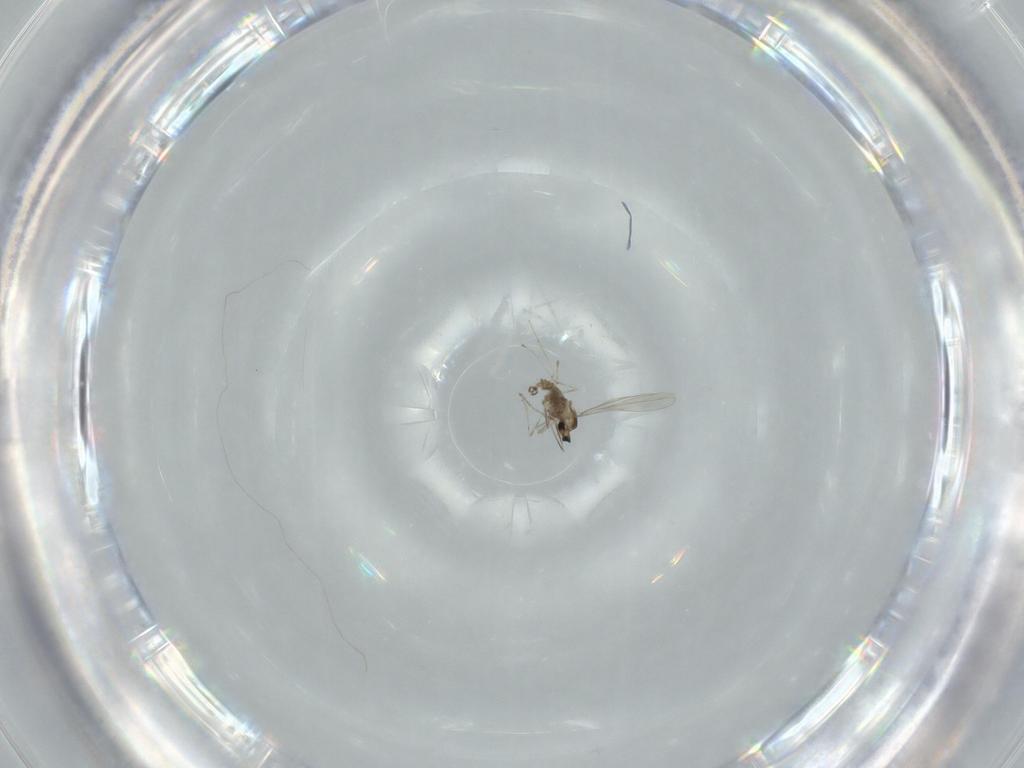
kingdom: Animalia
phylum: Arthropoda
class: Insecta
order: Diptera
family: Cecidomyiidae
